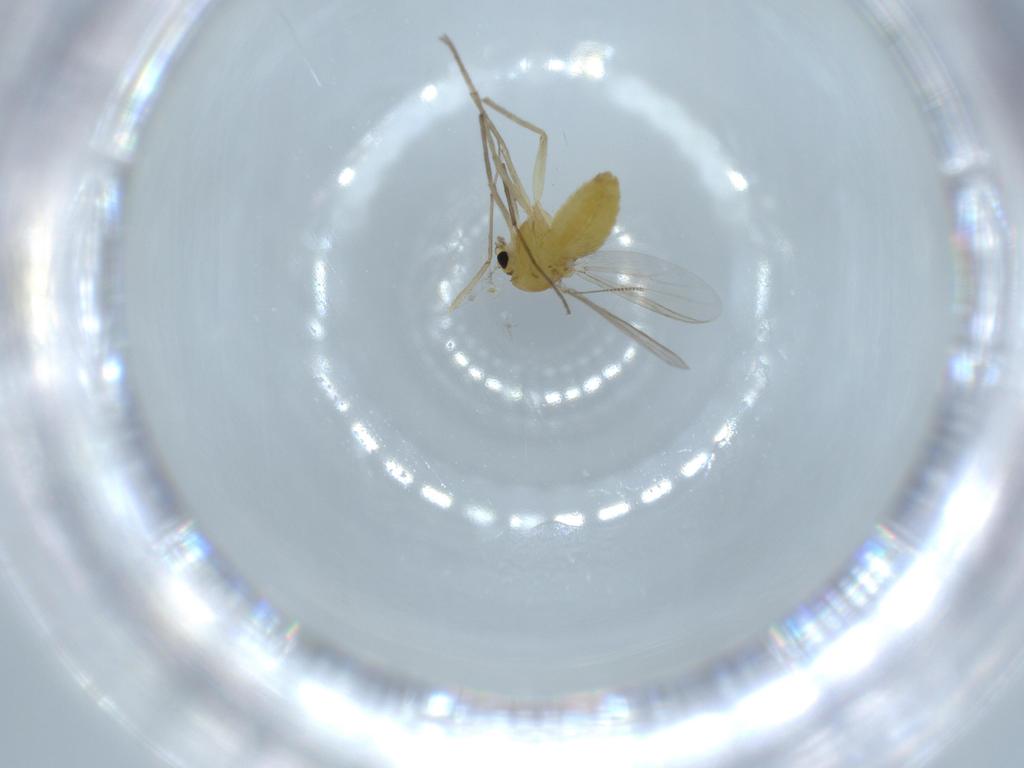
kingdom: Animalia
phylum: Arthropoda
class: Insecta
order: Diptera
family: Chironomidae
